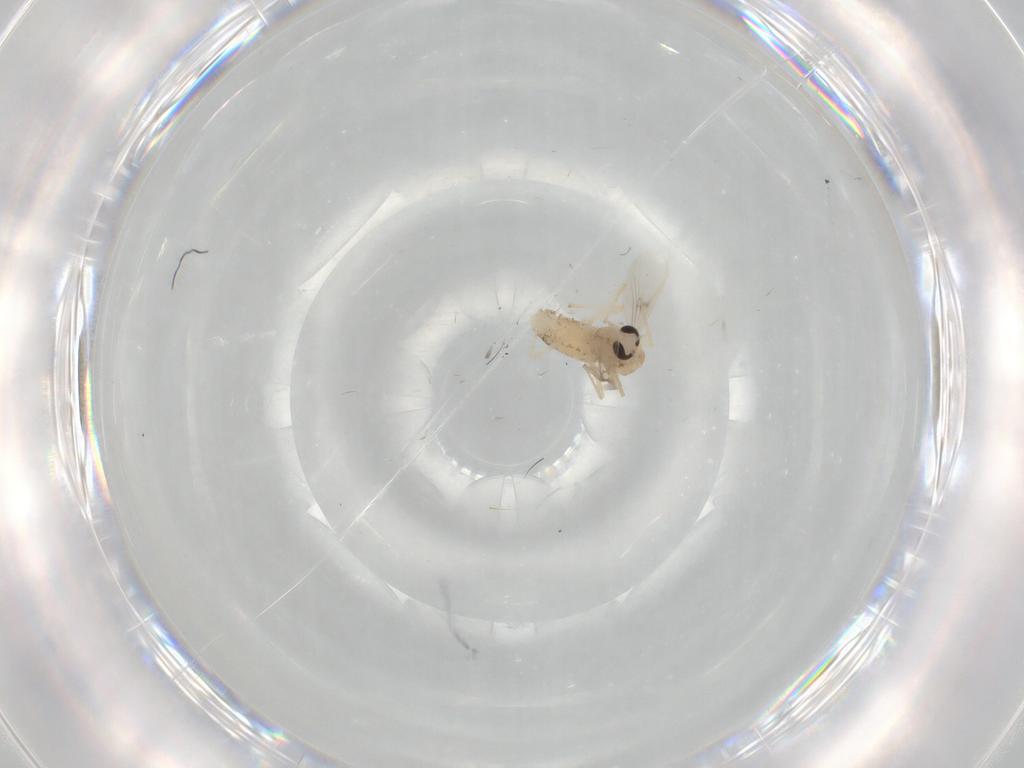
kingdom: Animalia
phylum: Arthropoda
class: Insecta
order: Diptera
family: Chironomidae
